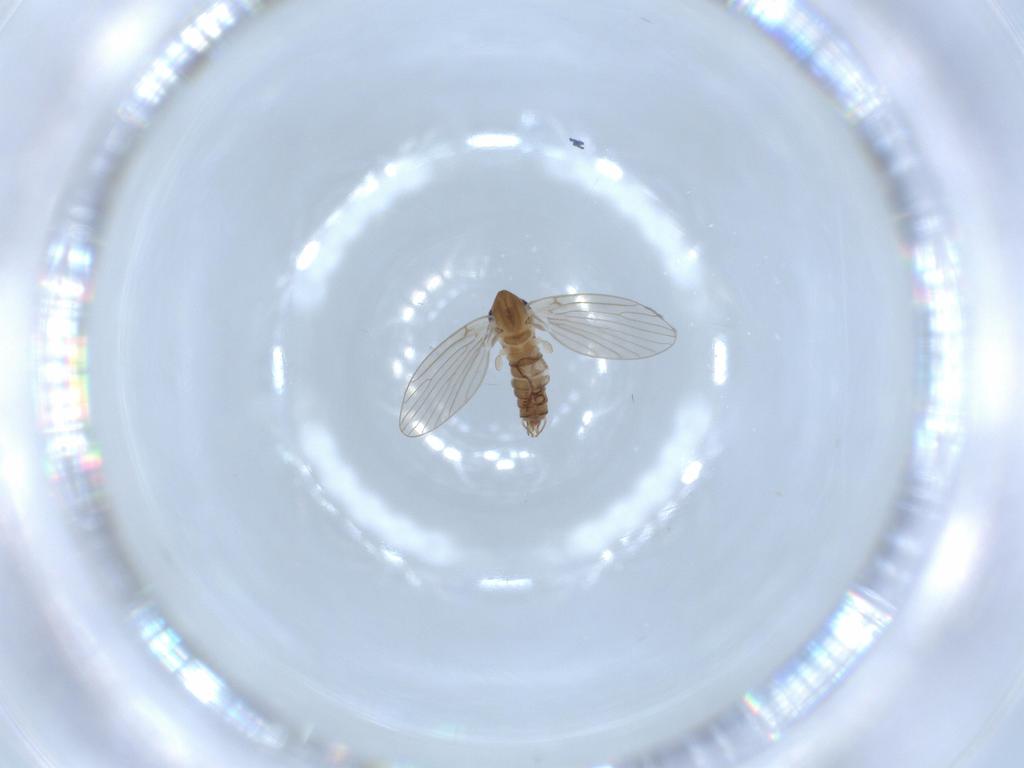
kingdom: Animalia
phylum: Arthropoda
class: Insecta
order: Diptera
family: Psychodidae
